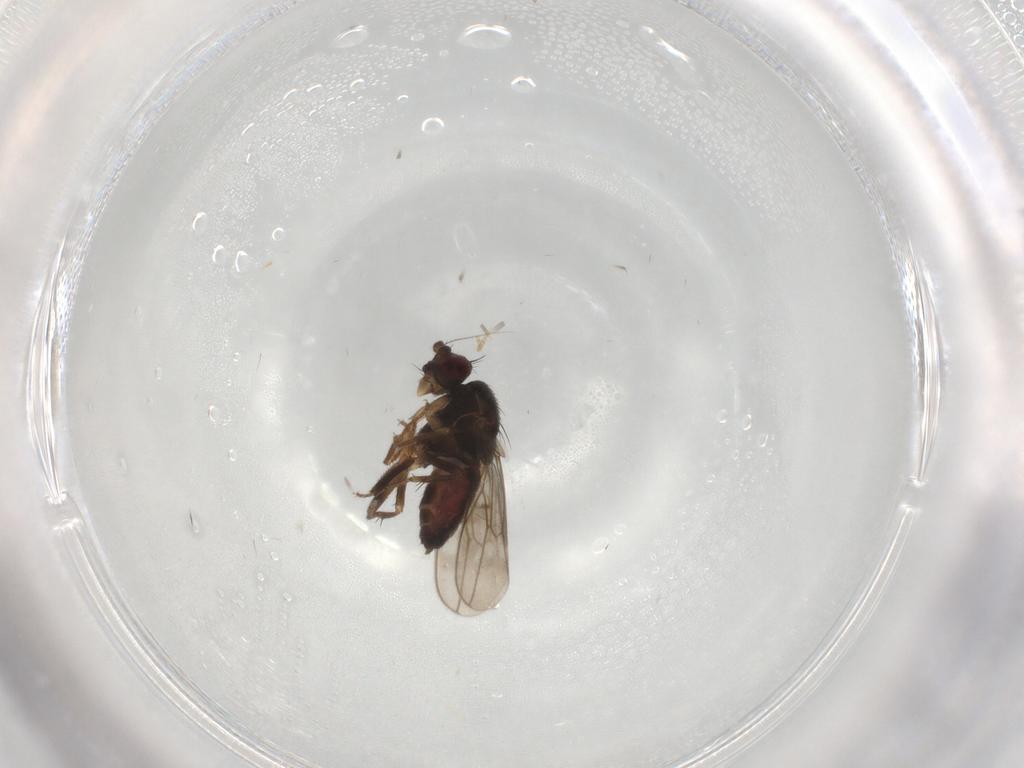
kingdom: Animalia
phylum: Arthropoda
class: Insecta
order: Diptera
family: Sphaeroceridae
